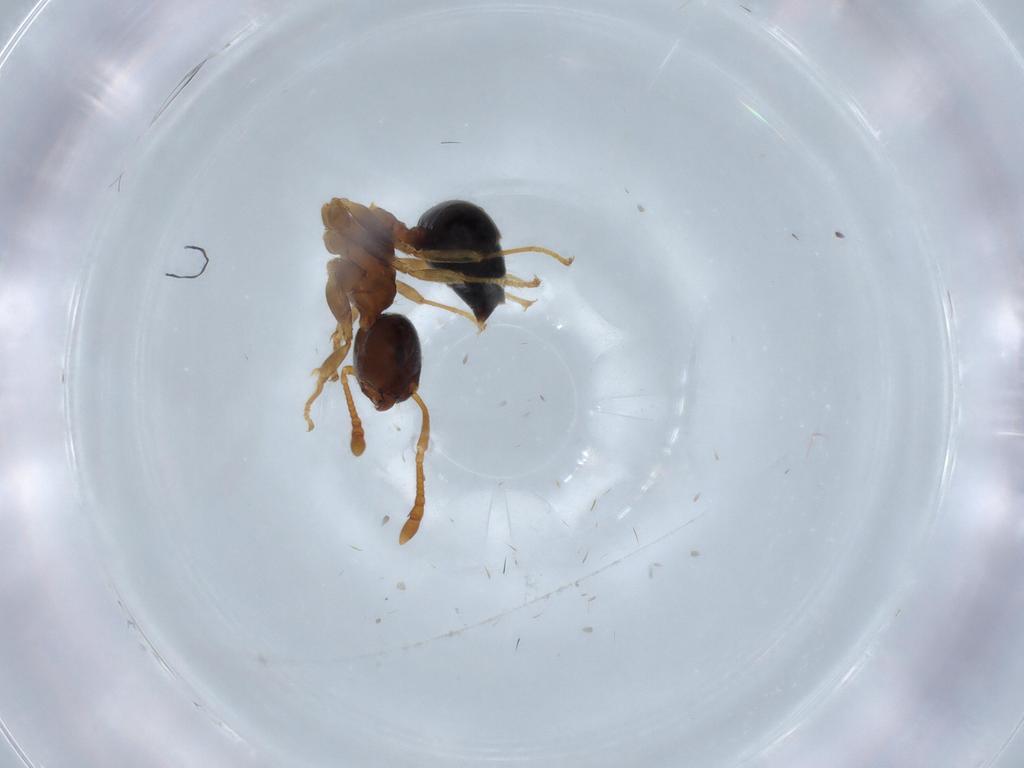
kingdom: Animalia
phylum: Arthropoda
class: Insecta
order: Hymenoptera
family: Formicidae
